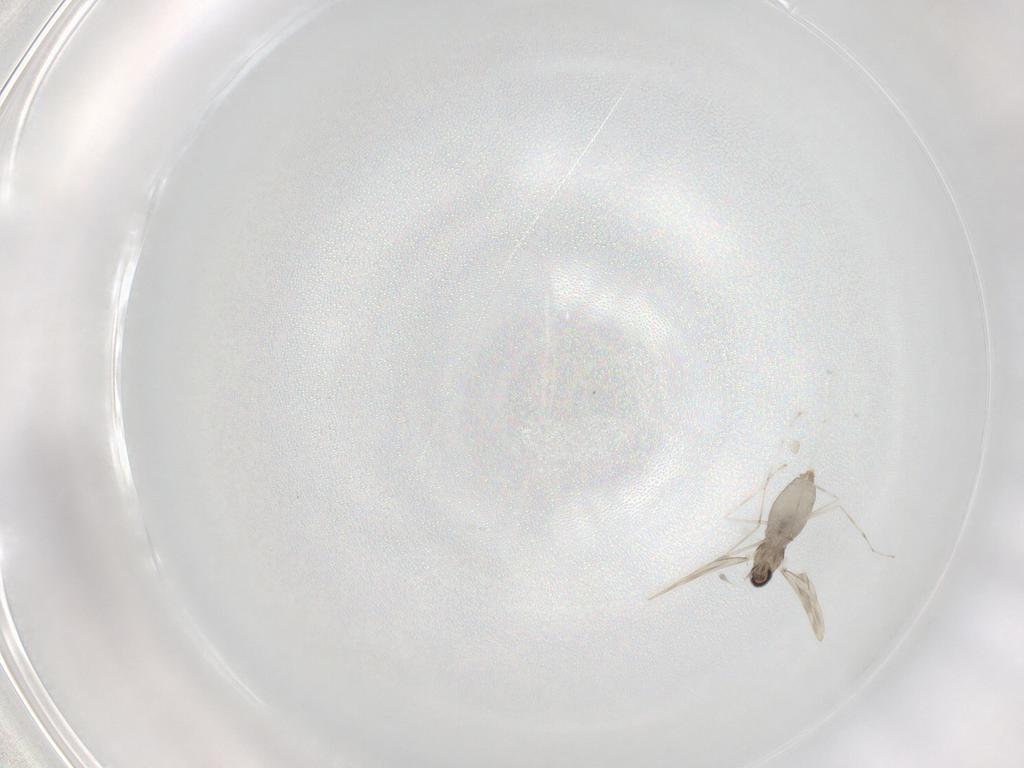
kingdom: Animalia
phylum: Arthropoda
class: Insecta
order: Diptera
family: Cecidomyiidae
